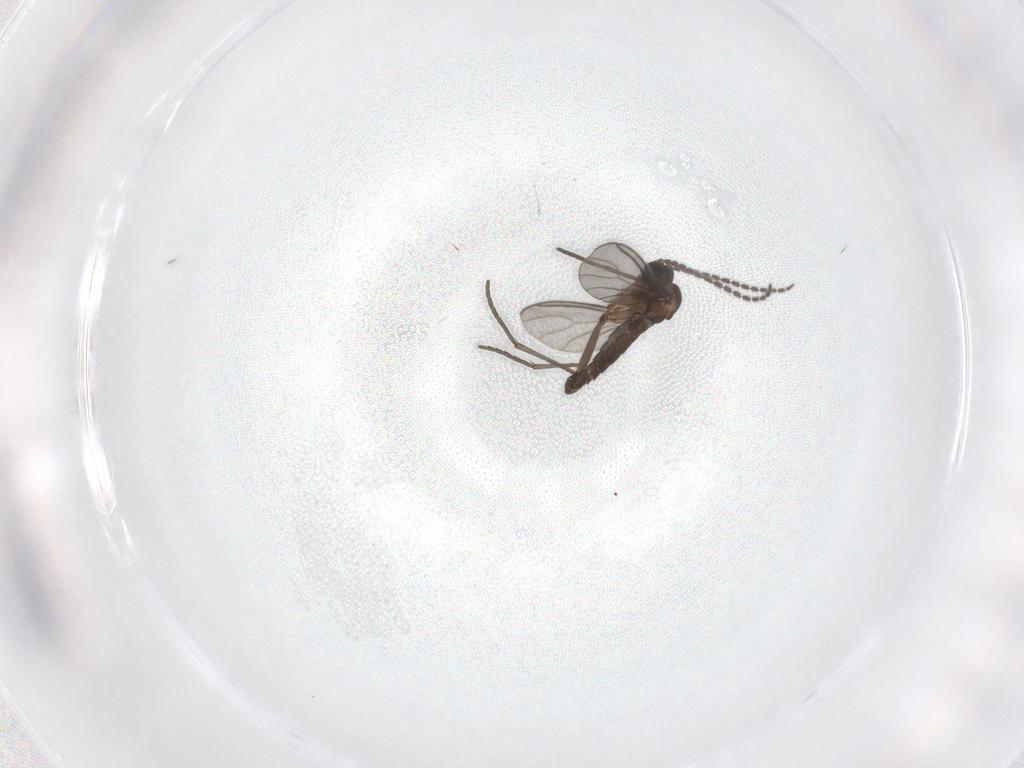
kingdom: Animalia
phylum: Arthropoda
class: Insecta
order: Diptera
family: Sciaridae
